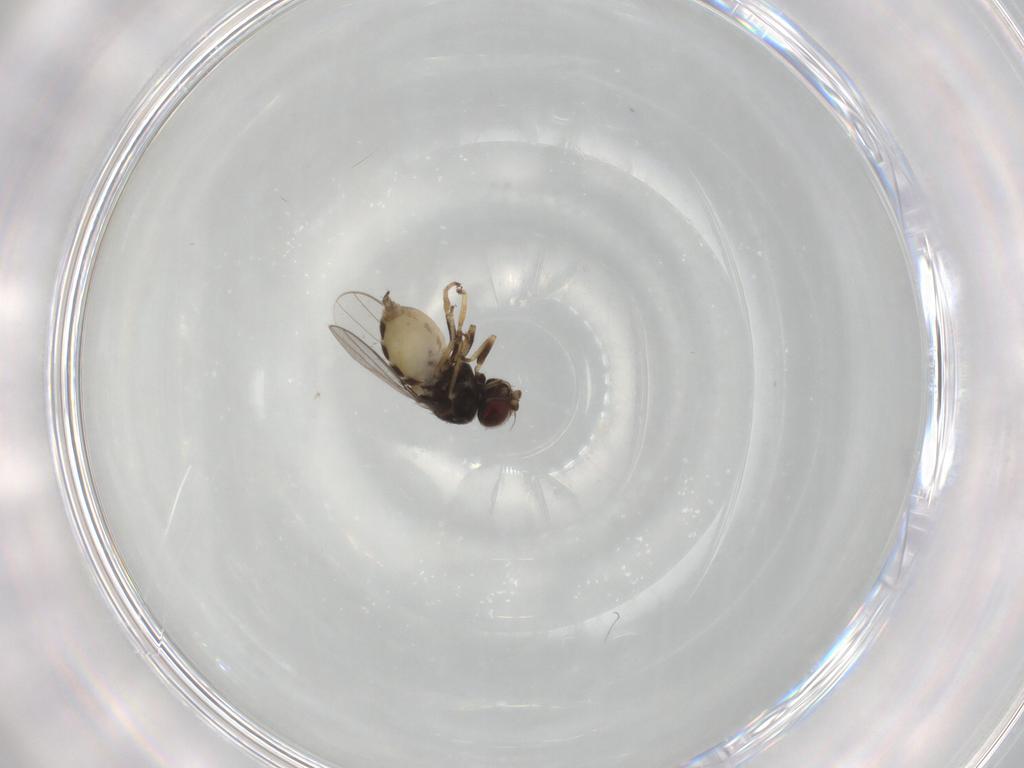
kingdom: Animalia
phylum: Arthropoda
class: Insecta
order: Diptera
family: Chloropidae
